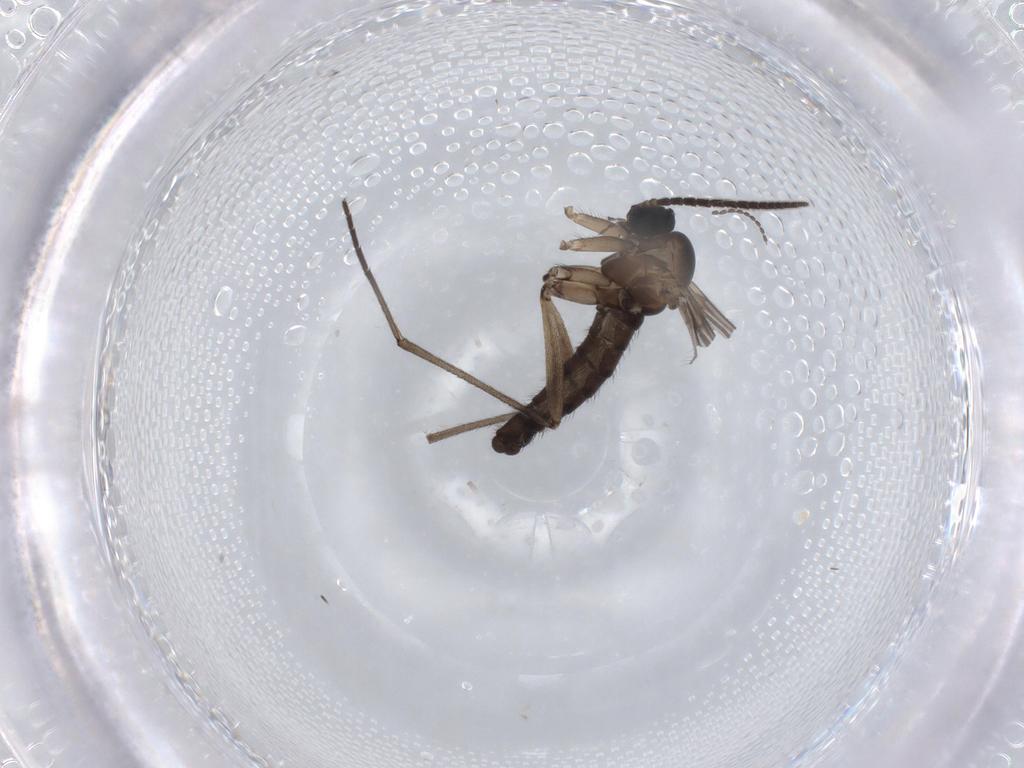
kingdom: Animalia
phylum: Arthropoda
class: Insecta
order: Diptera
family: Sciaridae
